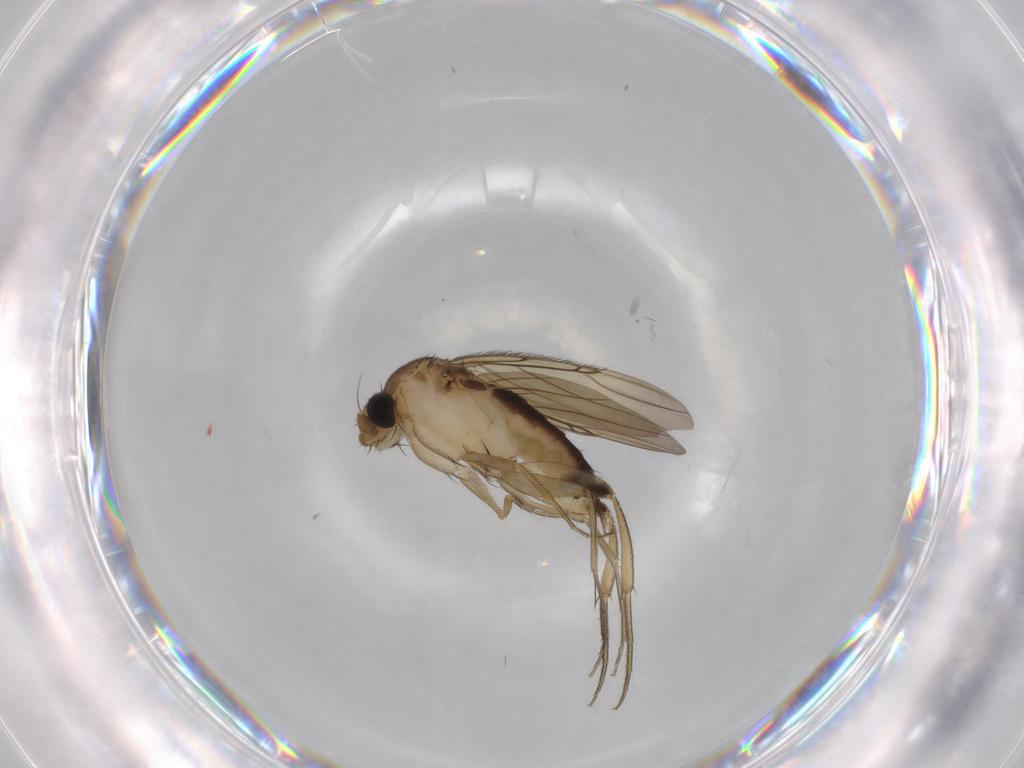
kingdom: Animalia
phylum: Arthropoda
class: Insecta
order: Diptera
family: Phoridae
